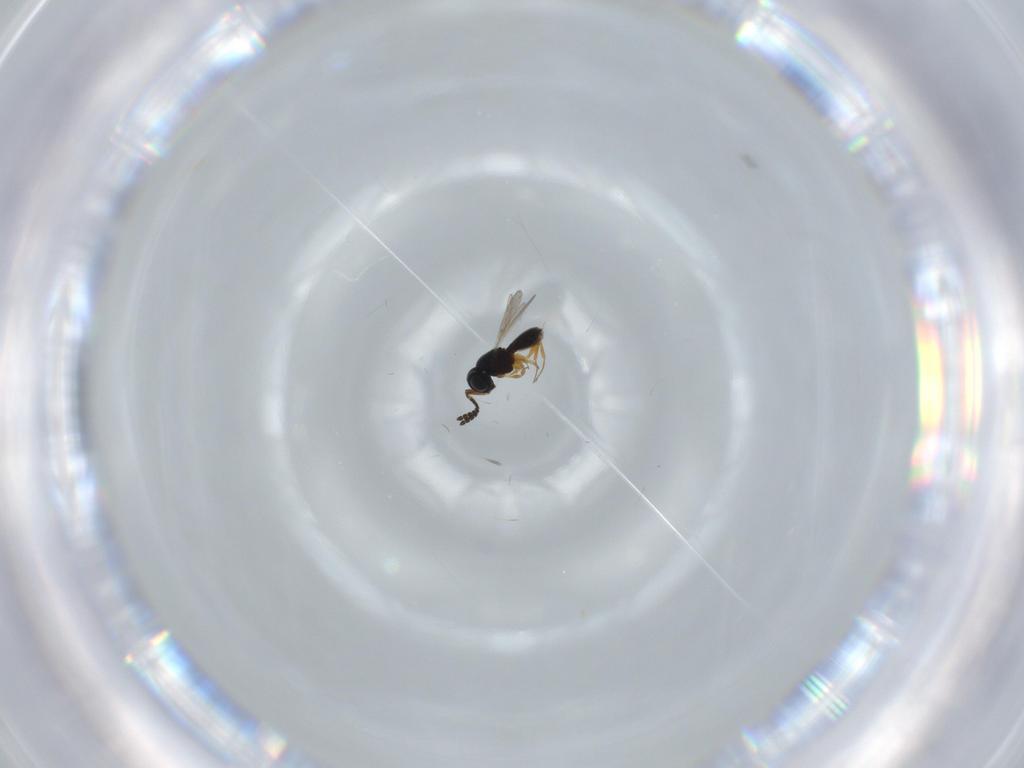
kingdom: Animalia
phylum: Arthropoda
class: Insecta
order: Hymenoptera
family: Scelionidae
